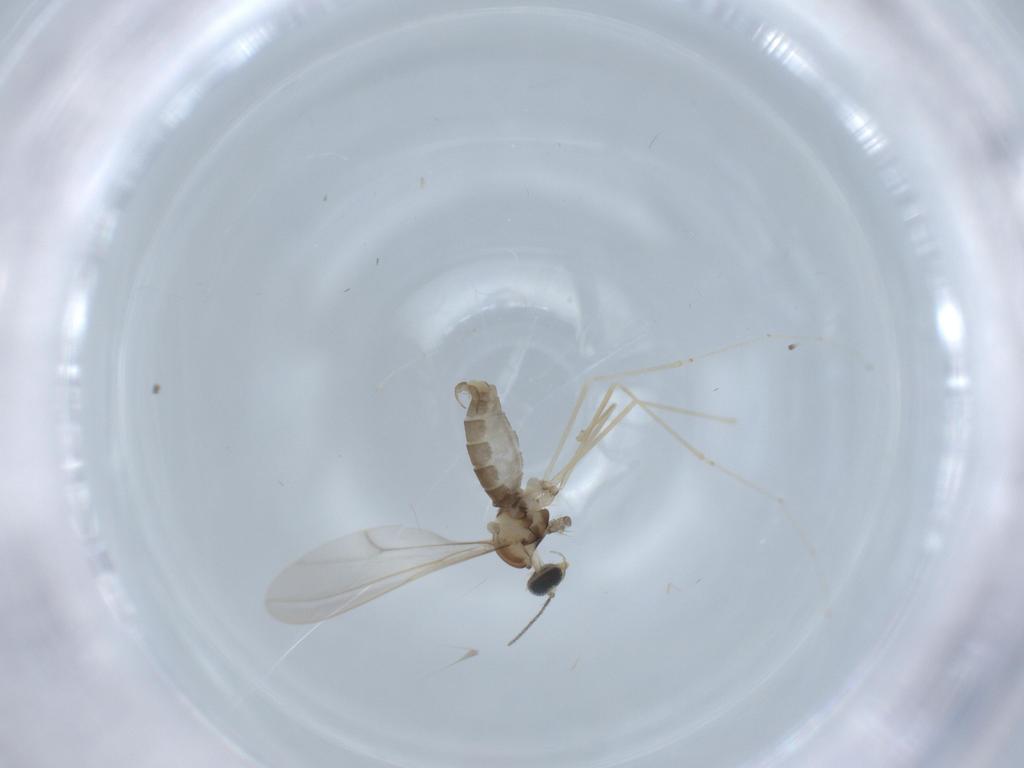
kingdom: Animalia
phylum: Arthropoda
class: Insecta
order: Diptera
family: Cecidomyiidae
